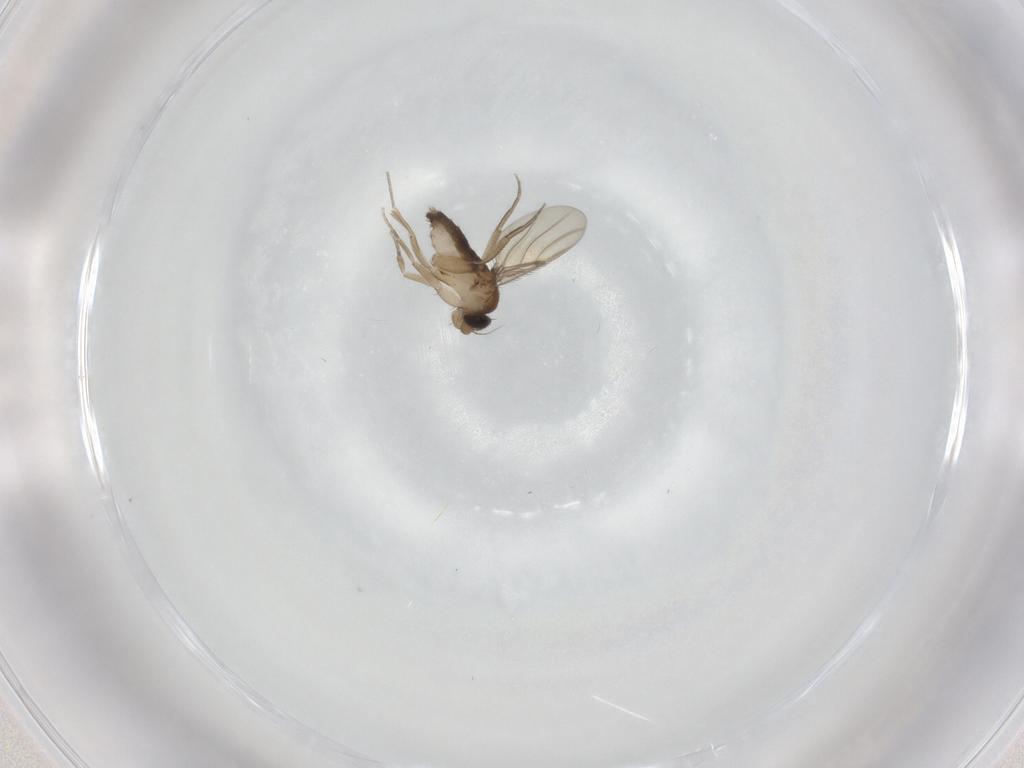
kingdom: Animalia
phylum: Arthropoda
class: Insecta
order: Diptera
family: Phoridae
